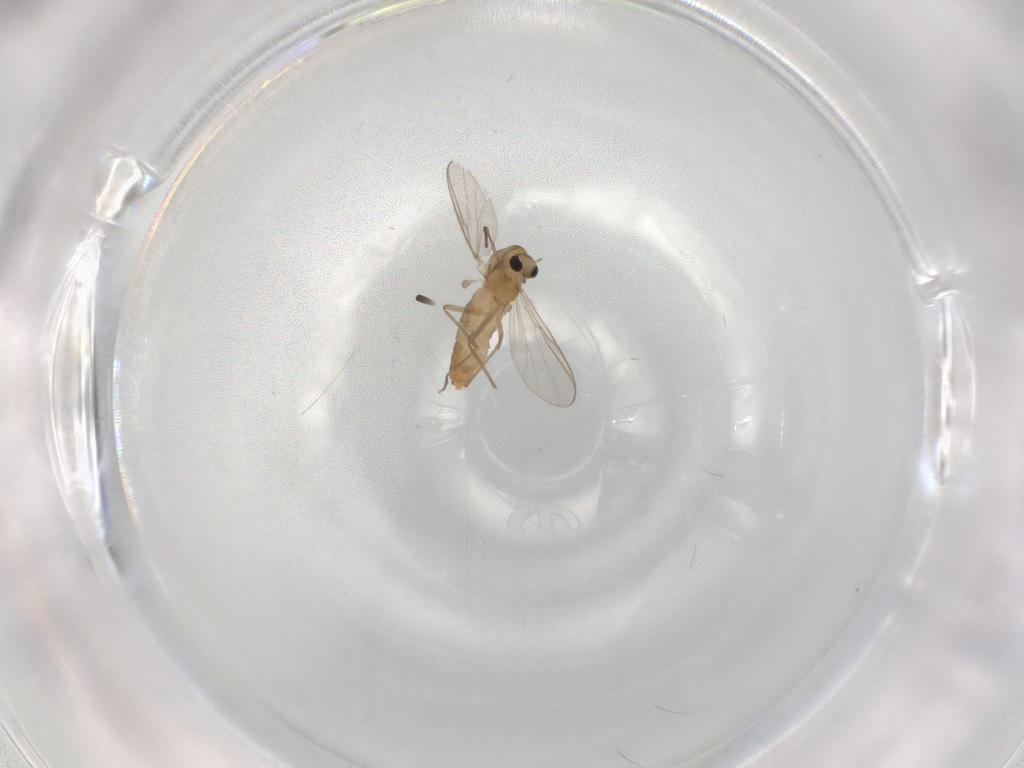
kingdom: Animalia
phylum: Arthropoda
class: Insecta
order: Diptera
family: Chironomidae
